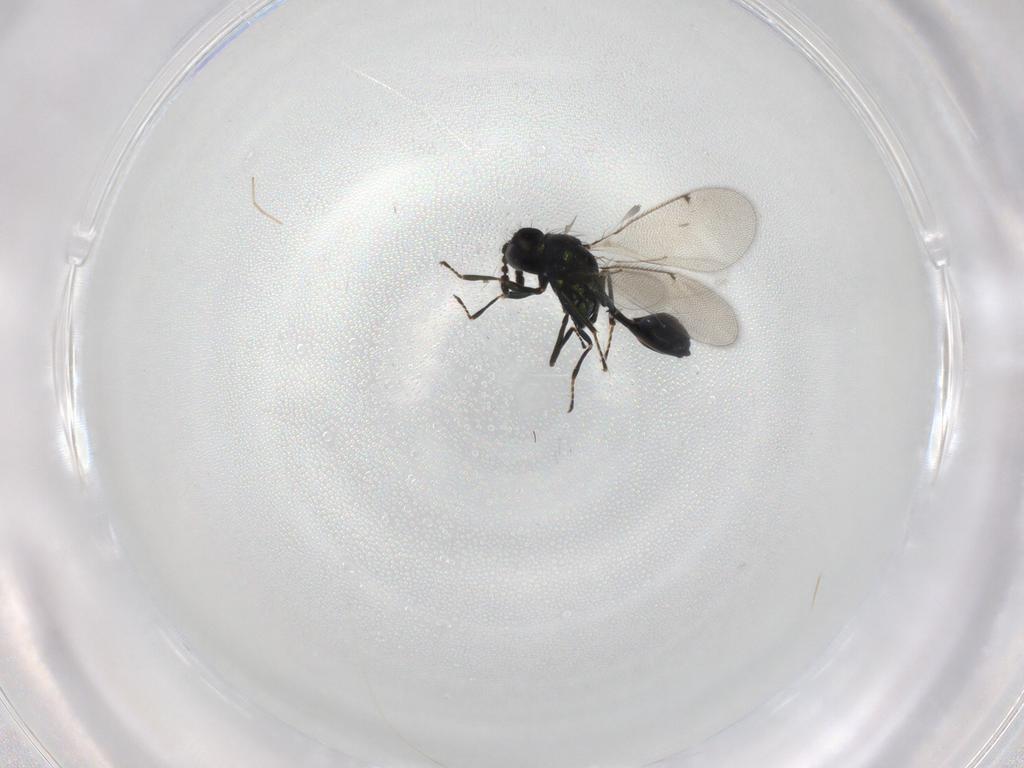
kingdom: Animalia
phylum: Arthropoda
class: Insecta
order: Hymenoptera
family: Eulophidae
